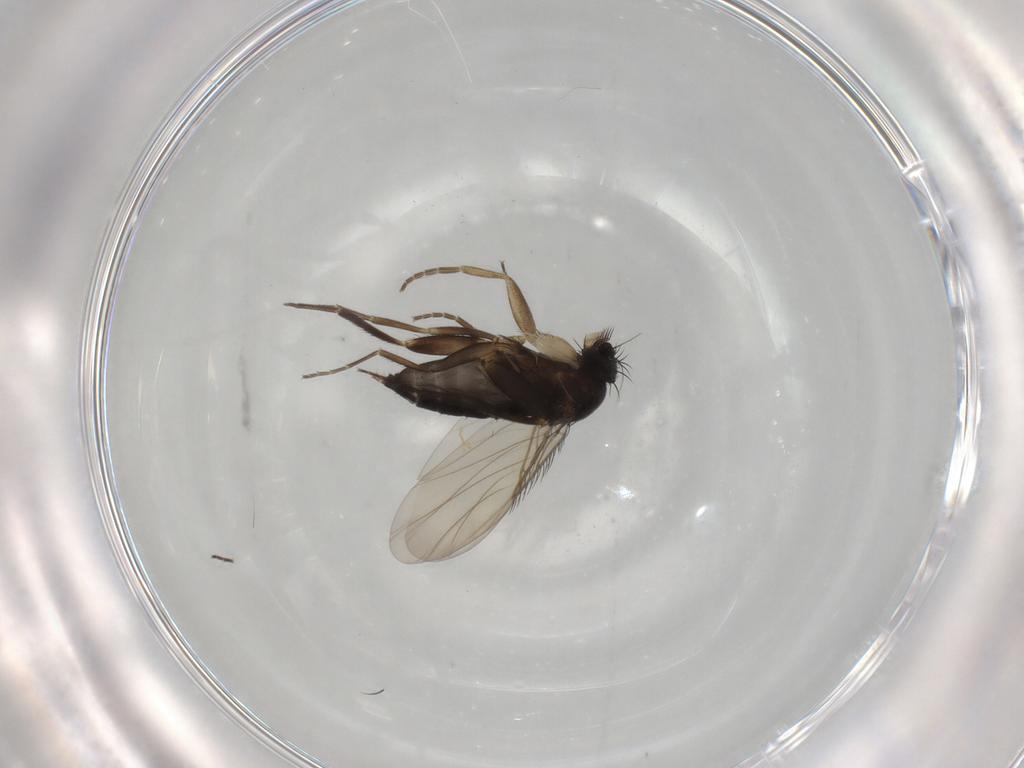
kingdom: Animalia
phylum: Arthropoda
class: Insecta
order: Diptera
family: Phoridae
